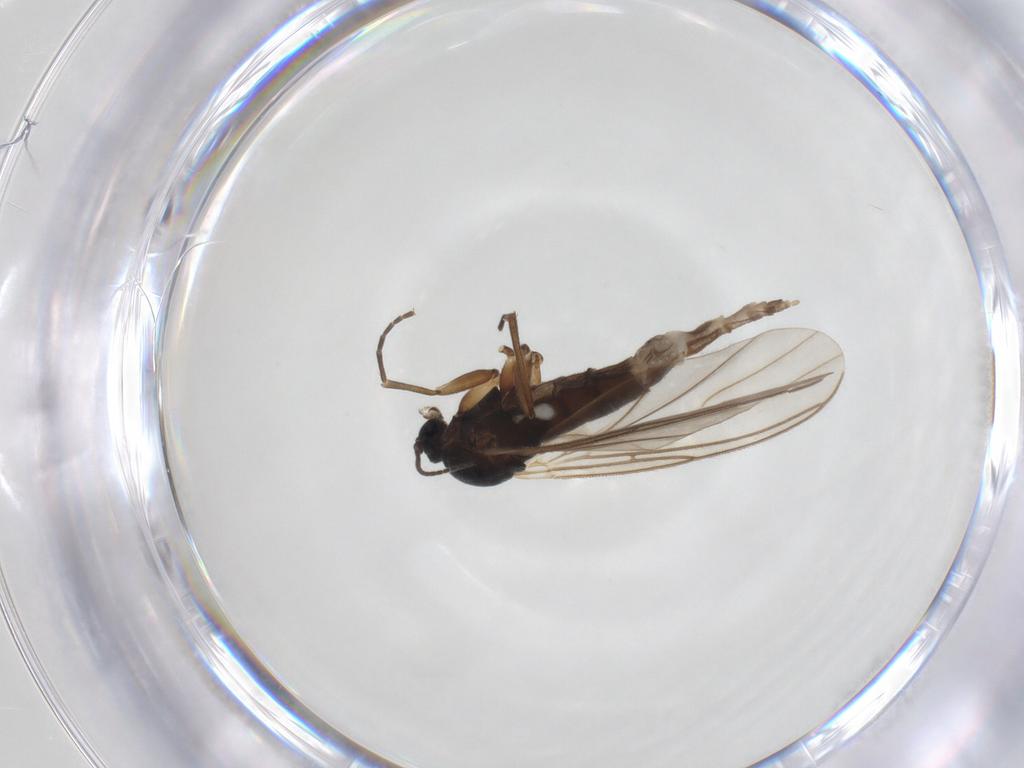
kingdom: Animalia
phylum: Arthropoda
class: Insecta
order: Diptera
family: Sciaridae
